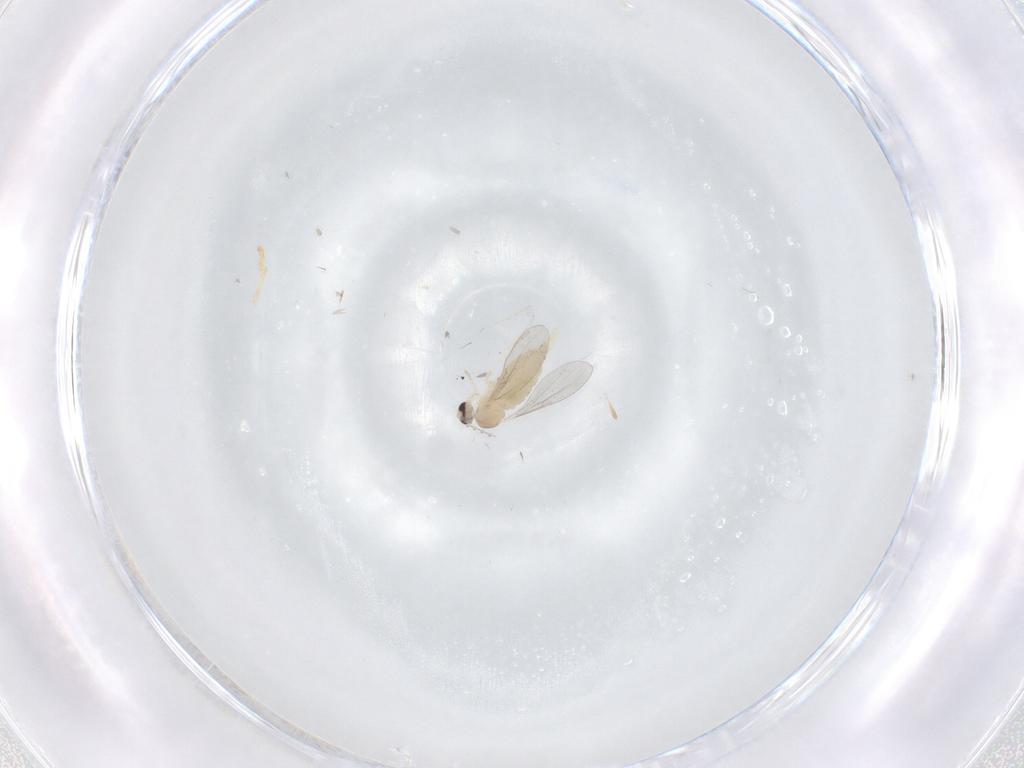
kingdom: Animalia
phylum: Arthropoda
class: Insecta
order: Diptera
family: Cecidomyiidae
